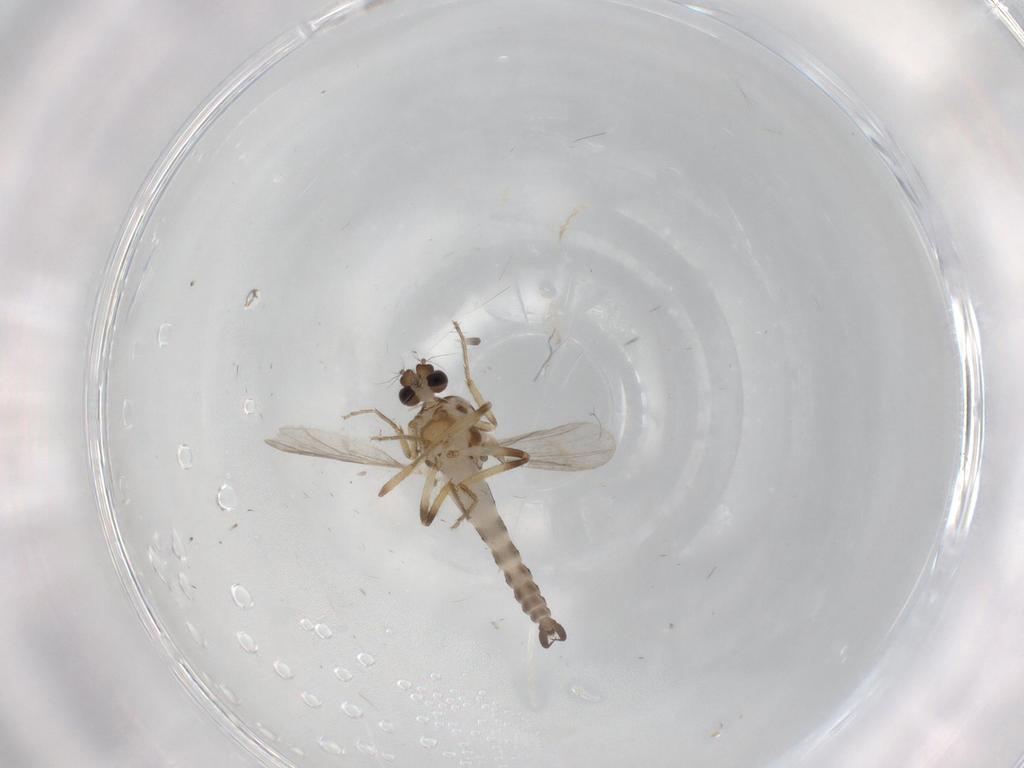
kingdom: Animalia
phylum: Arthropoda
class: Insecta
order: Diptera
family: Ceratopogonidae
